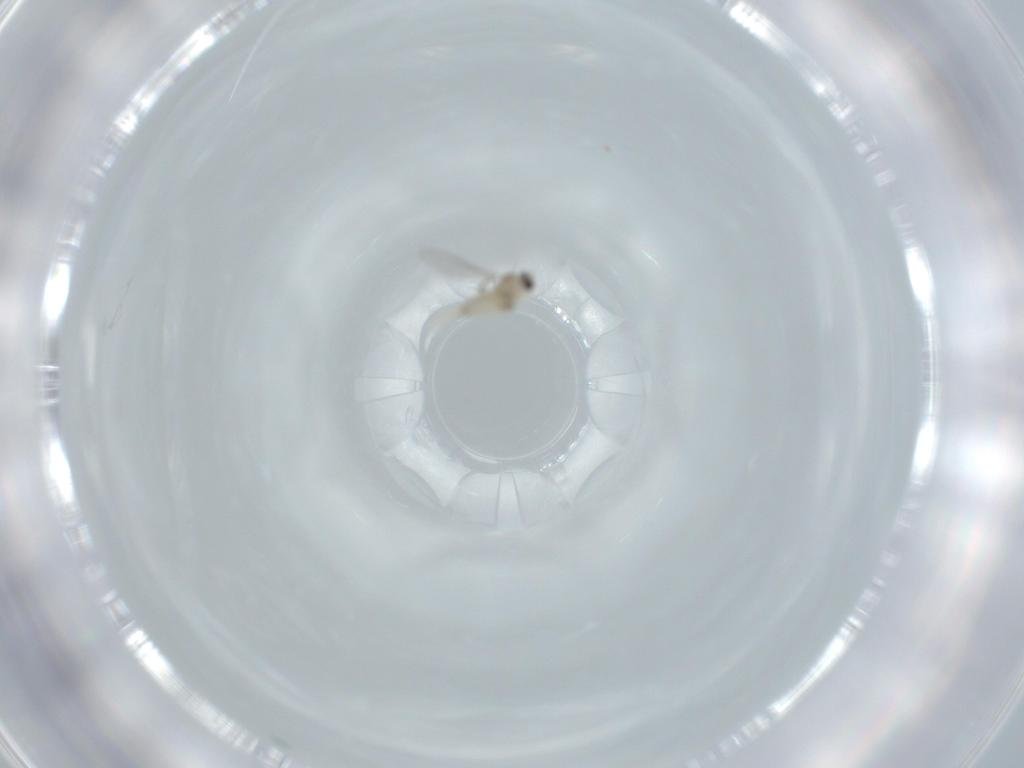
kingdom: Animalia
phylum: Arthropoda
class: Insecta
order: Diptera
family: Cecidomyiidae
